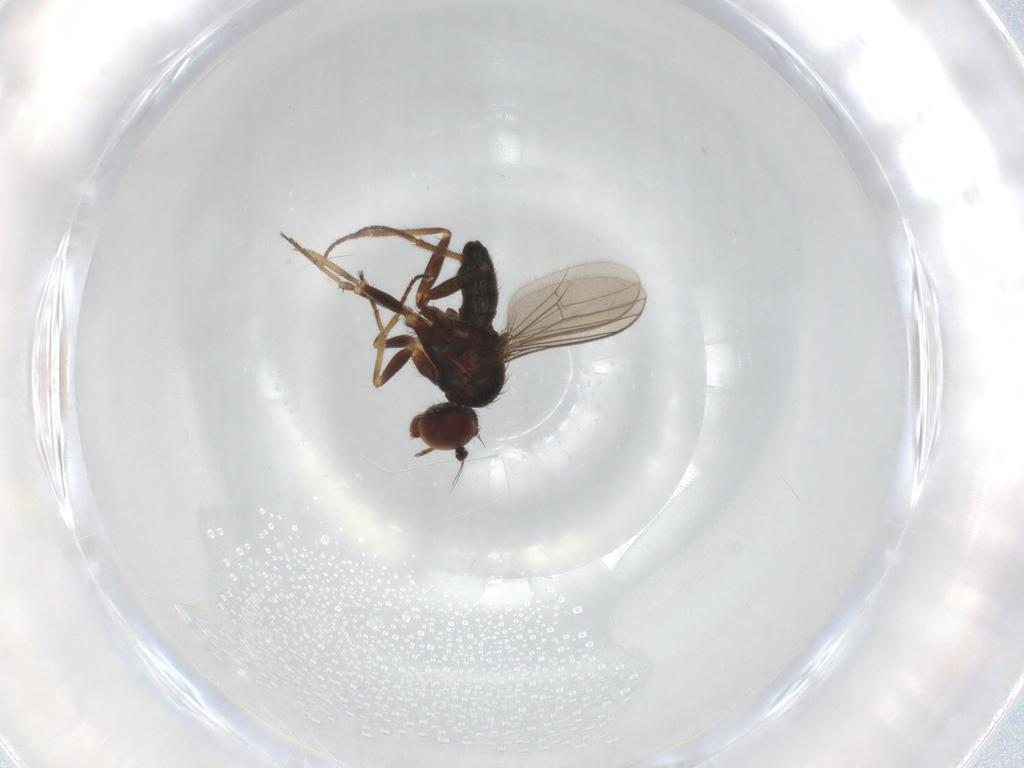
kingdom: Animalia
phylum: Arthropoda
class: Insecta
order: Diptera
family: Dolichopodidae
